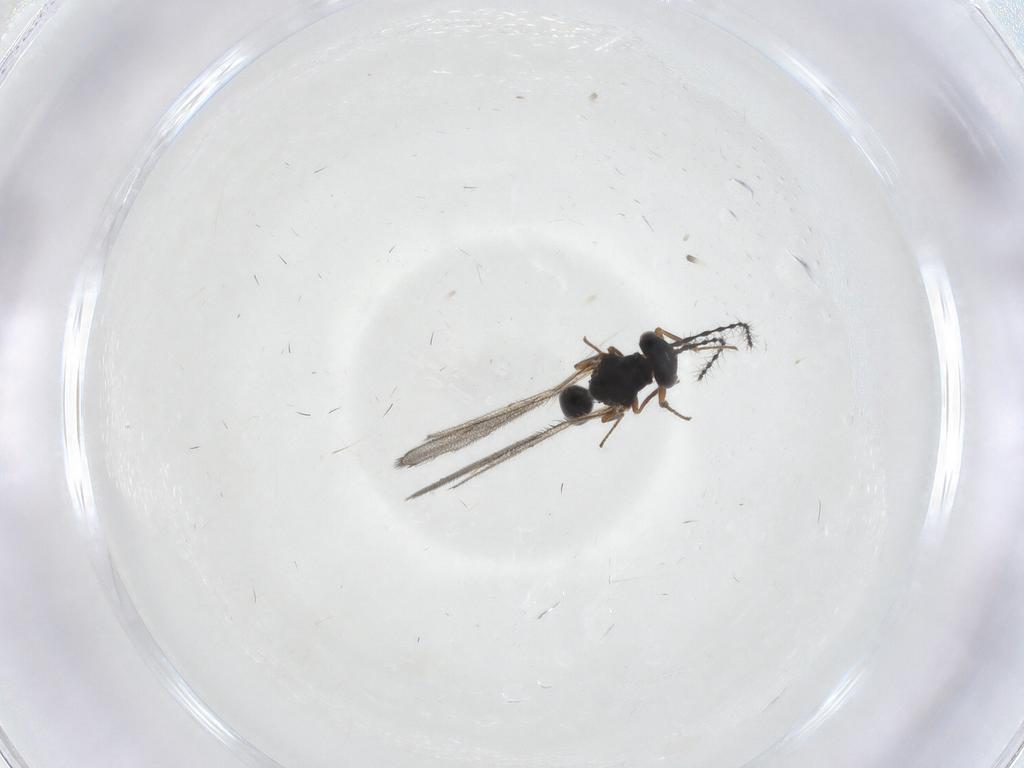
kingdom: Animalia
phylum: Arthropoda
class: Insecta
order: Hymenoptera
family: Diparidae
